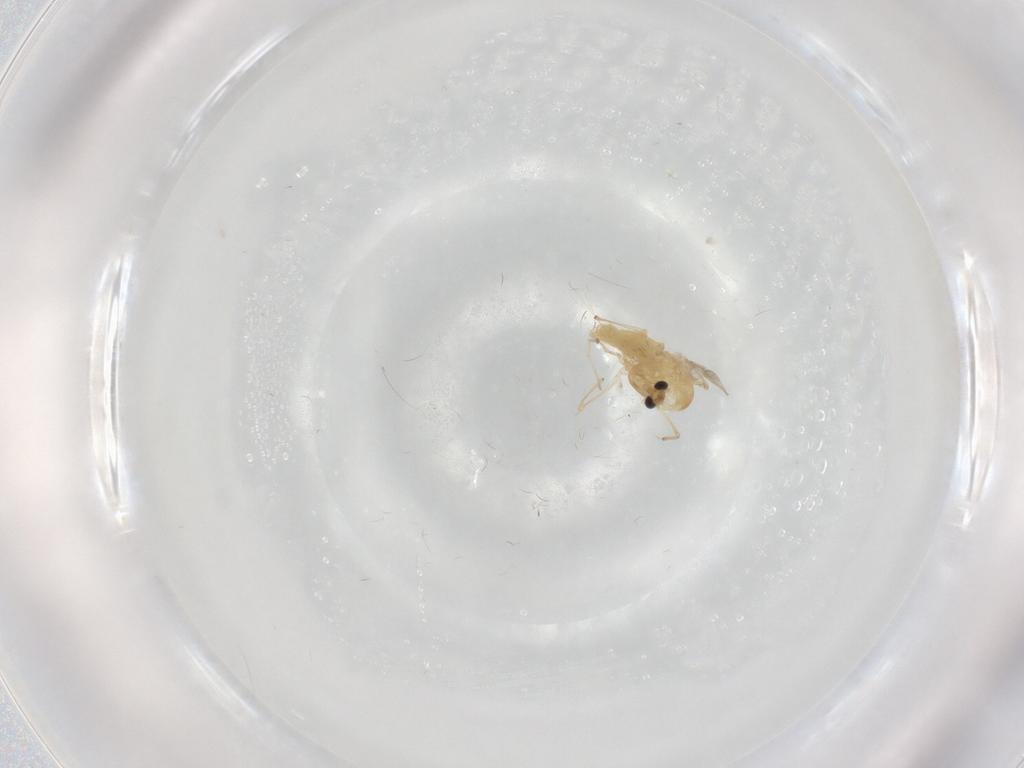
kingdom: Animalia
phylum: Arthropoda
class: Insecta
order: Diptera
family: Chironomidae
